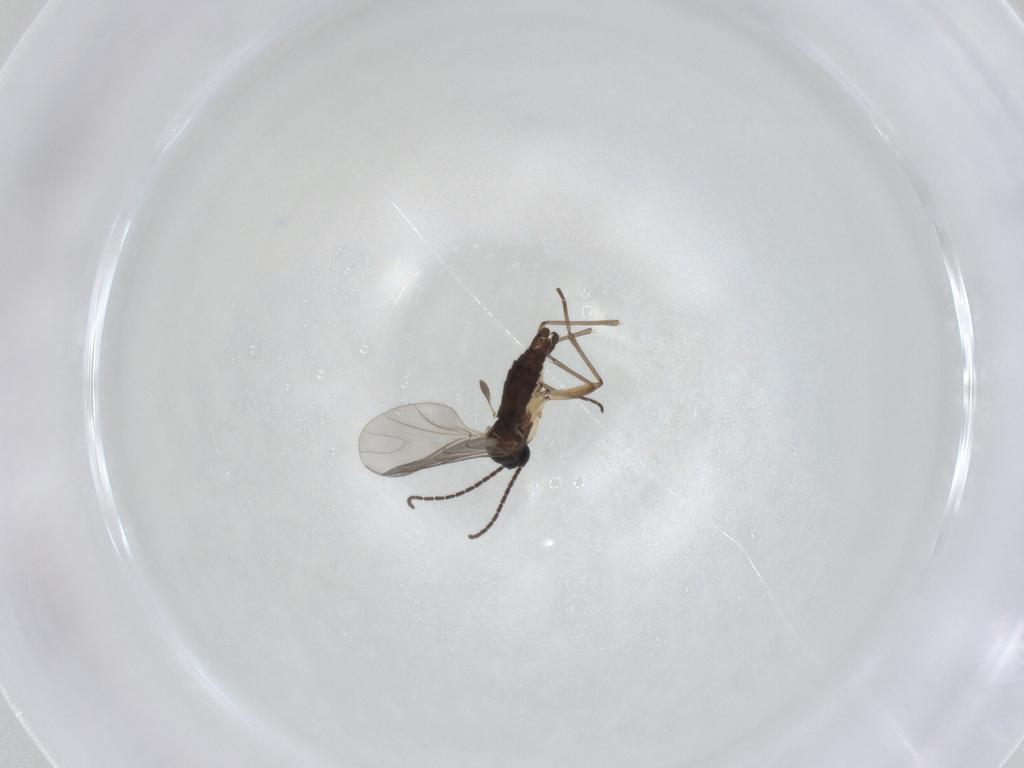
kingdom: Animalia
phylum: Arthropoda
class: Insecta
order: Diptera
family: Sciaridae
